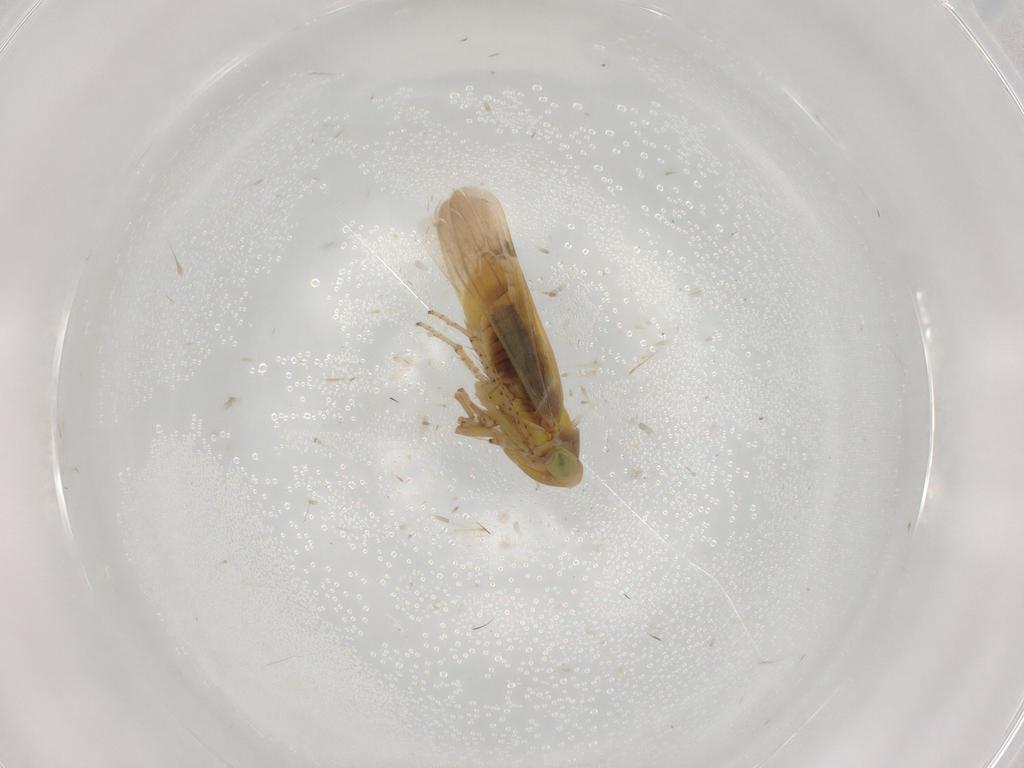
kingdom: Animalia
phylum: Arthropoda
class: Insecta
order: Hemiptera
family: Cicadellidae
